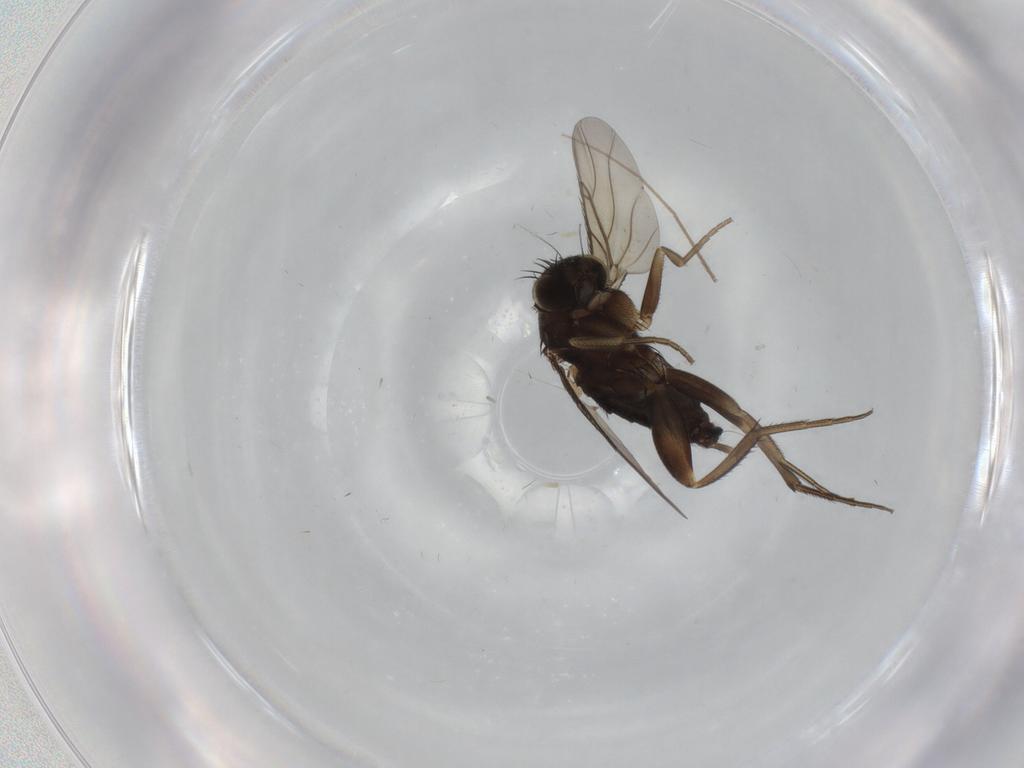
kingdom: Animalia
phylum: Arthropoda
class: Insecta
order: Diptera
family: Phoridae
